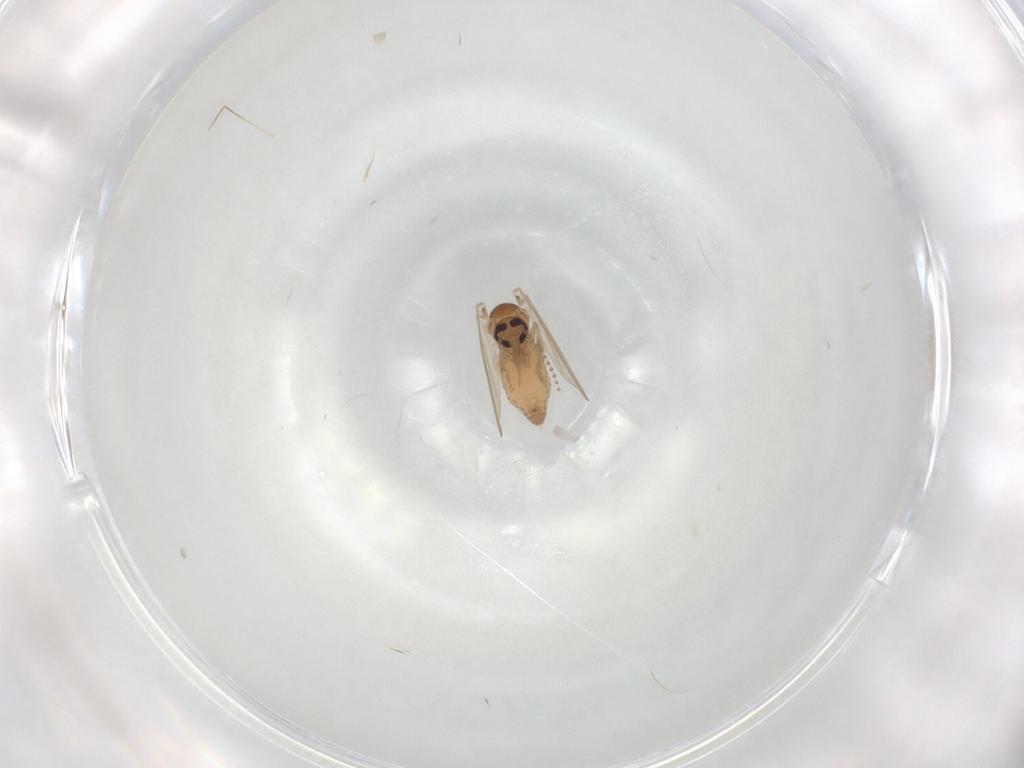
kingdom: Animalia
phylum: Arthropoda
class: Insecta
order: Diptera
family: Psychodidae
